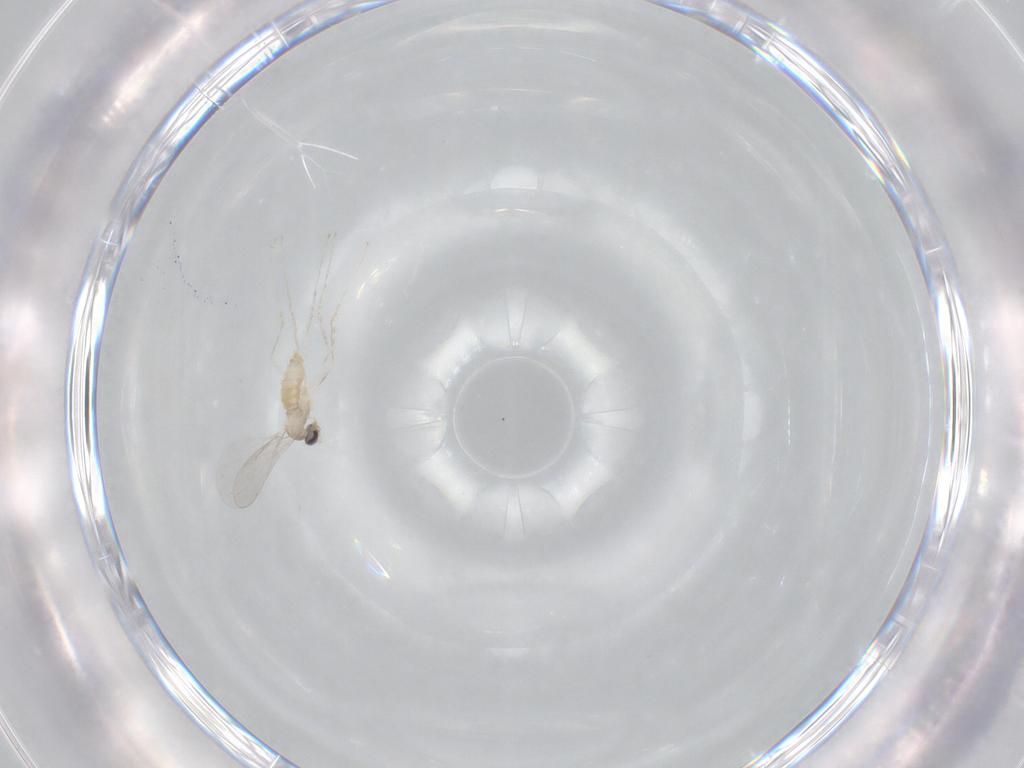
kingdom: Animalia
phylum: Arthropoda
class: Insecta
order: Diptera
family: Cecidomyiidae
